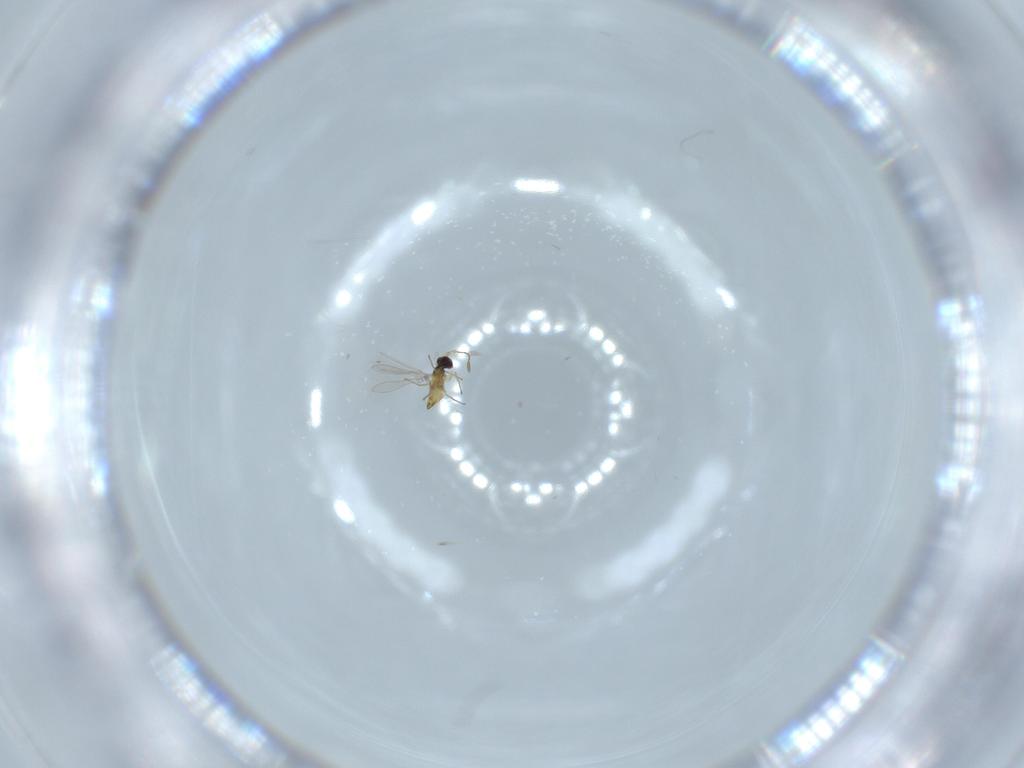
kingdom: Animalia
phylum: Arthropoda
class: Insecta
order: Hymenoptera
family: Mymaridae
